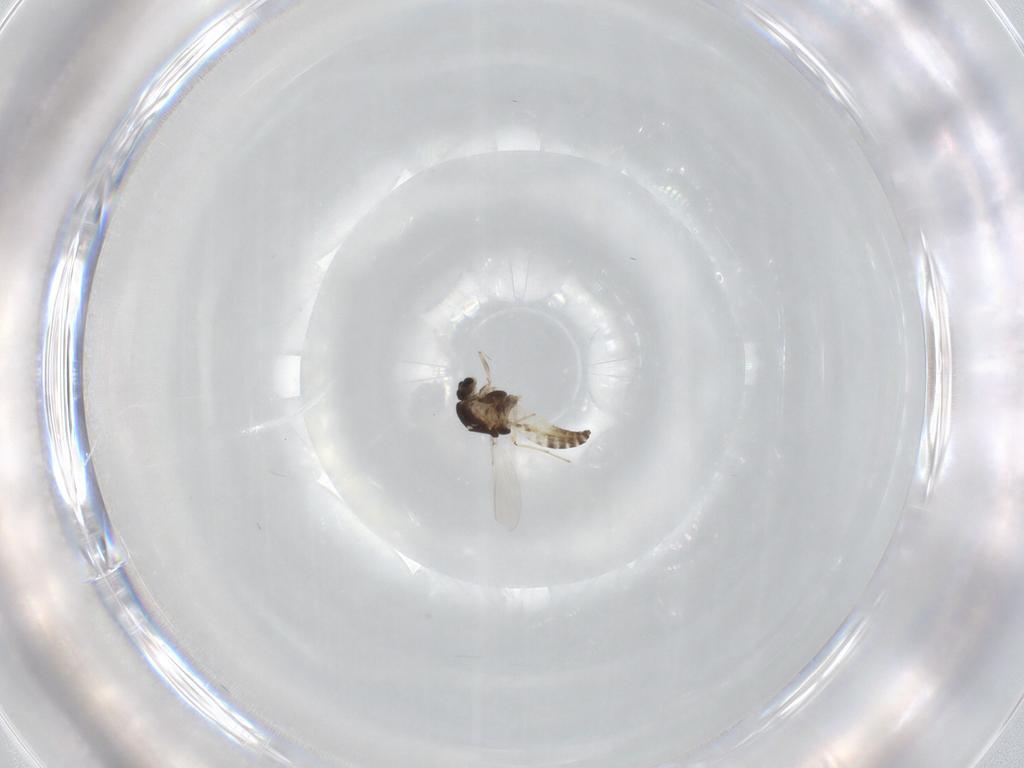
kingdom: Animalia
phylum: Arthropoda
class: Insecta
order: Diptera
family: Chironomidae
